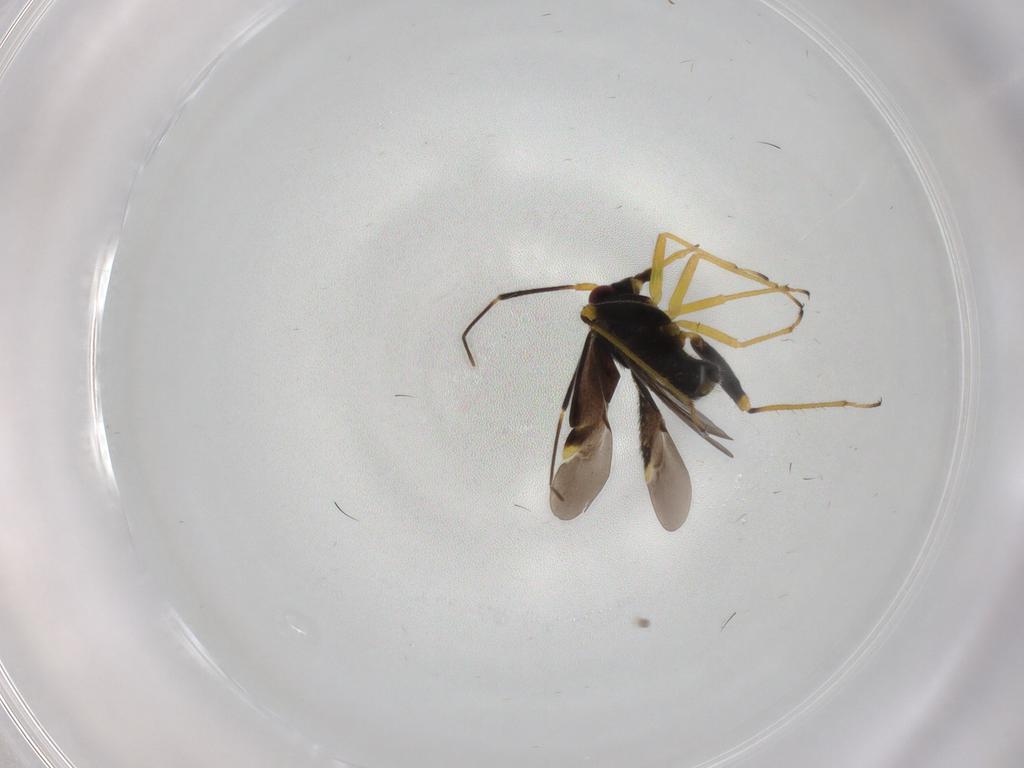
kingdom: Animalia
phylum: Arthropoda
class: Insecta
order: Hemiptera
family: Miridae
